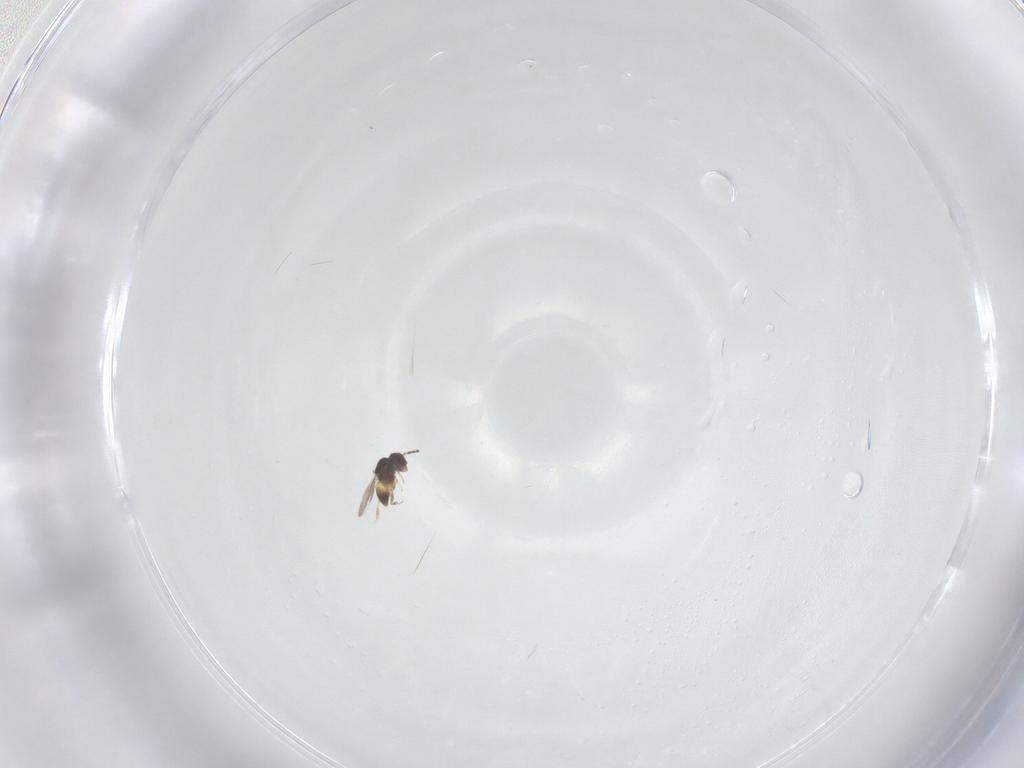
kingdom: Animalia
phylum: Arthropoda
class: Insecta
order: Hymenoptera
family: Ceraphronidae
